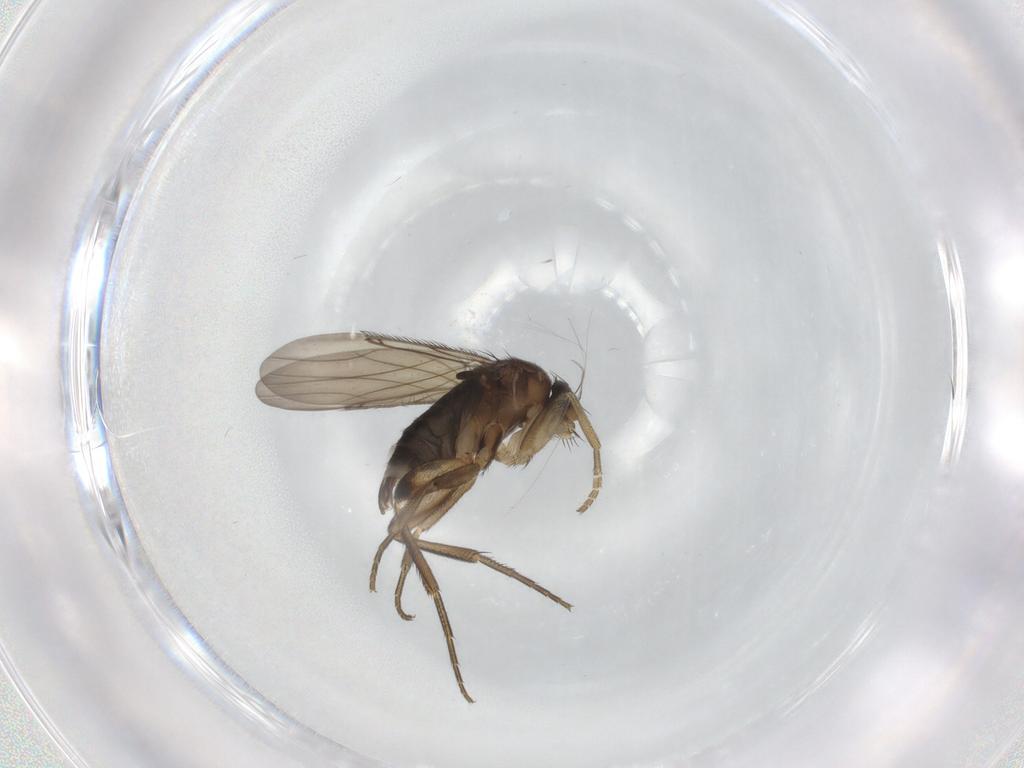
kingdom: Animalia
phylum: Arthropoda
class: Insecta
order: Diptera
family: Phoridae
